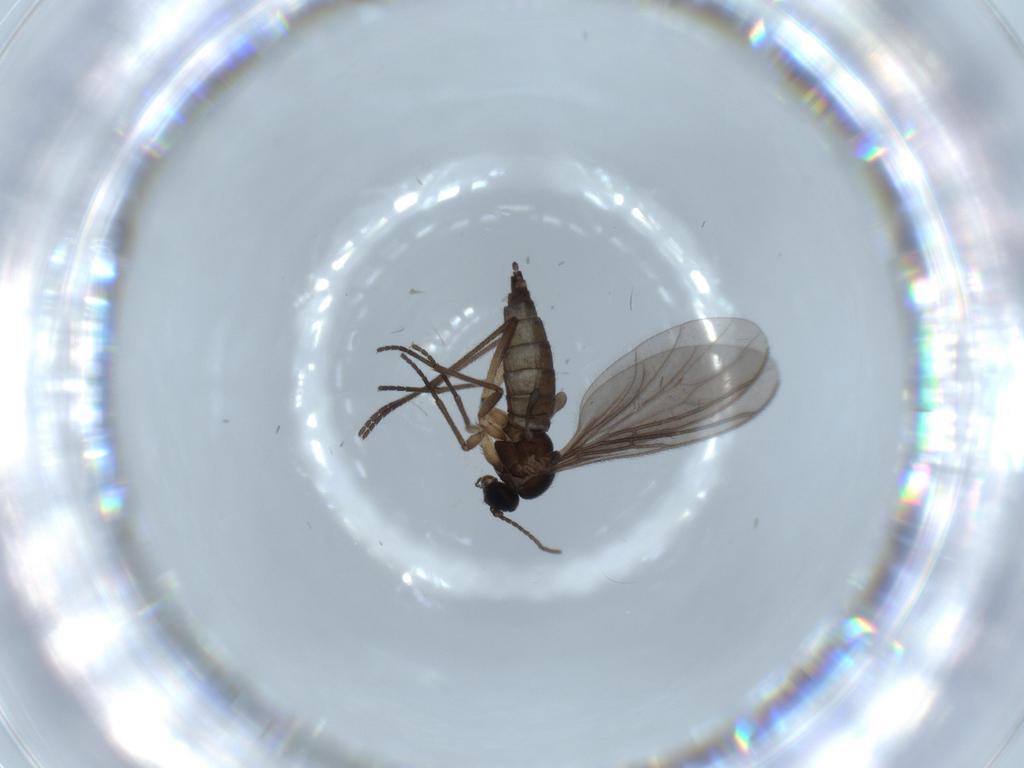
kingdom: Animalia
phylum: Arthropoda
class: Insecta
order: Diptera
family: Sciaridae
